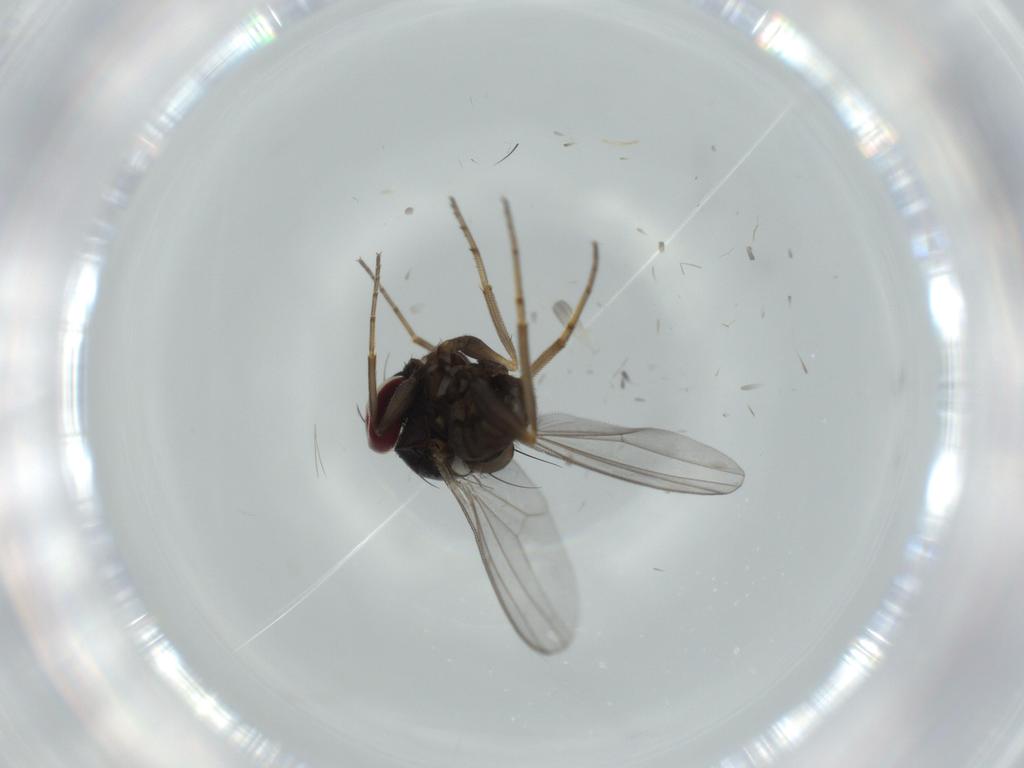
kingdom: Animalia
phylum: Arthropoda
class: Insecta
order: Diptera
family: Dolichopodidae
